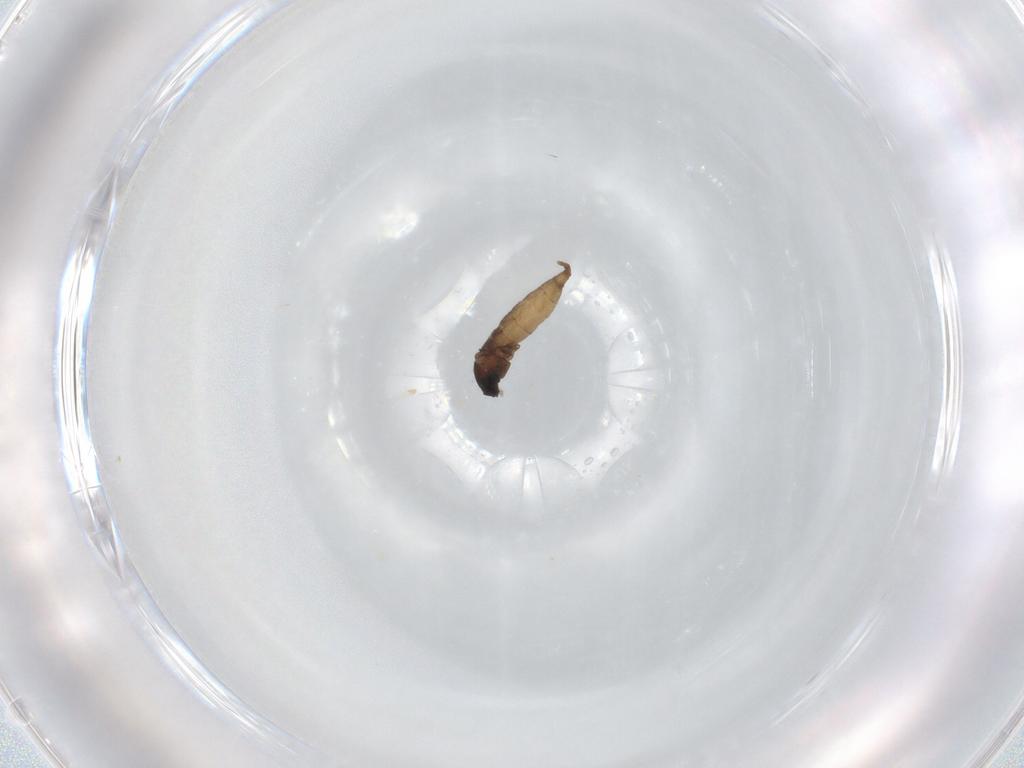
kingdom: Animalia
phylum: Arthropoda
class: Insecta
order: Diptera
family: Cecidomyiidae
